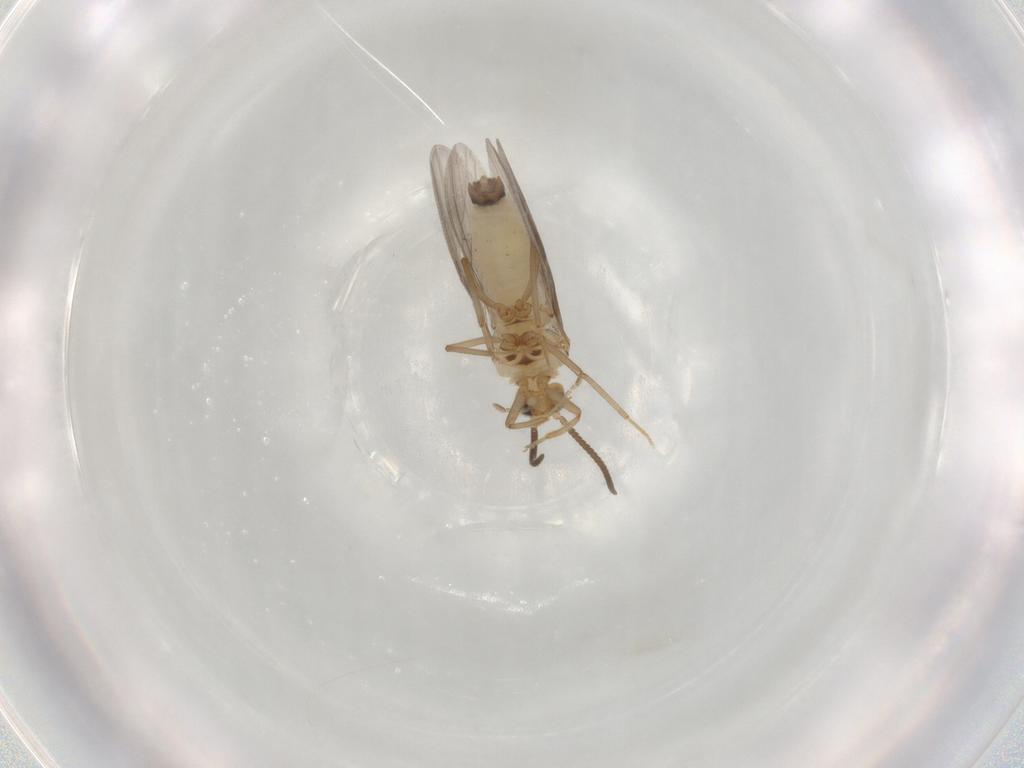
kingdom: Animalia
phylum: Arthropoda
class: Insecta
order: Neuroptera
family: Coniopterygidae
